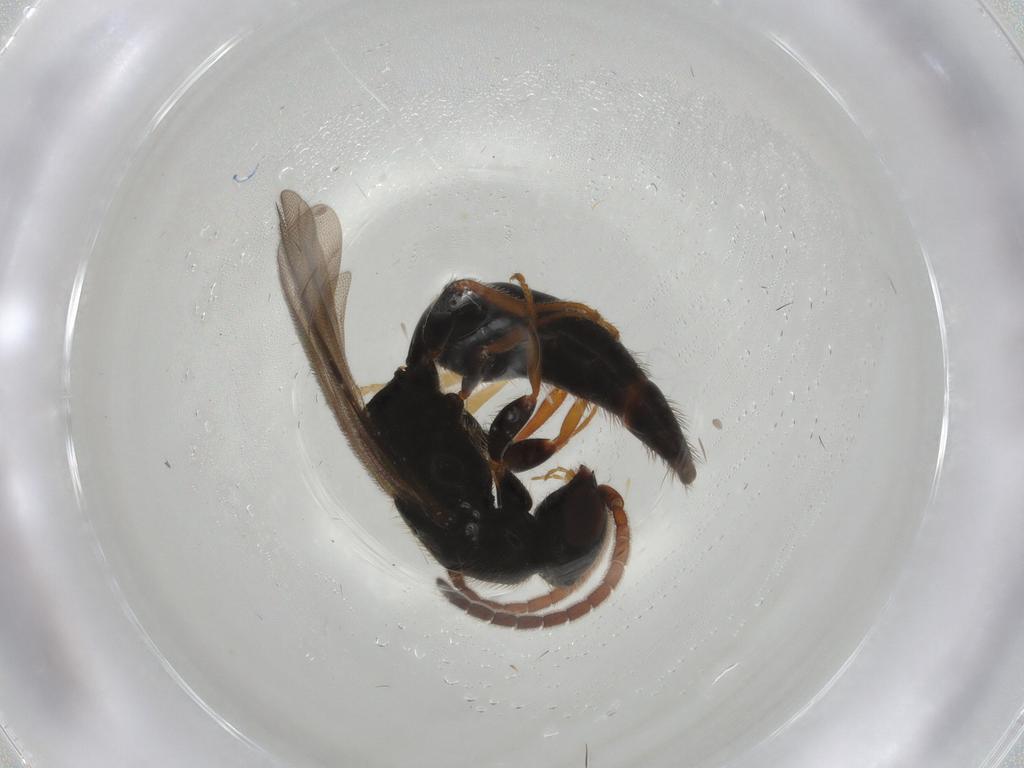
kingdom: Animalia
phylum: Arthropoda
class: Insecta
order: Hymenoptera
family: Bethylidae
